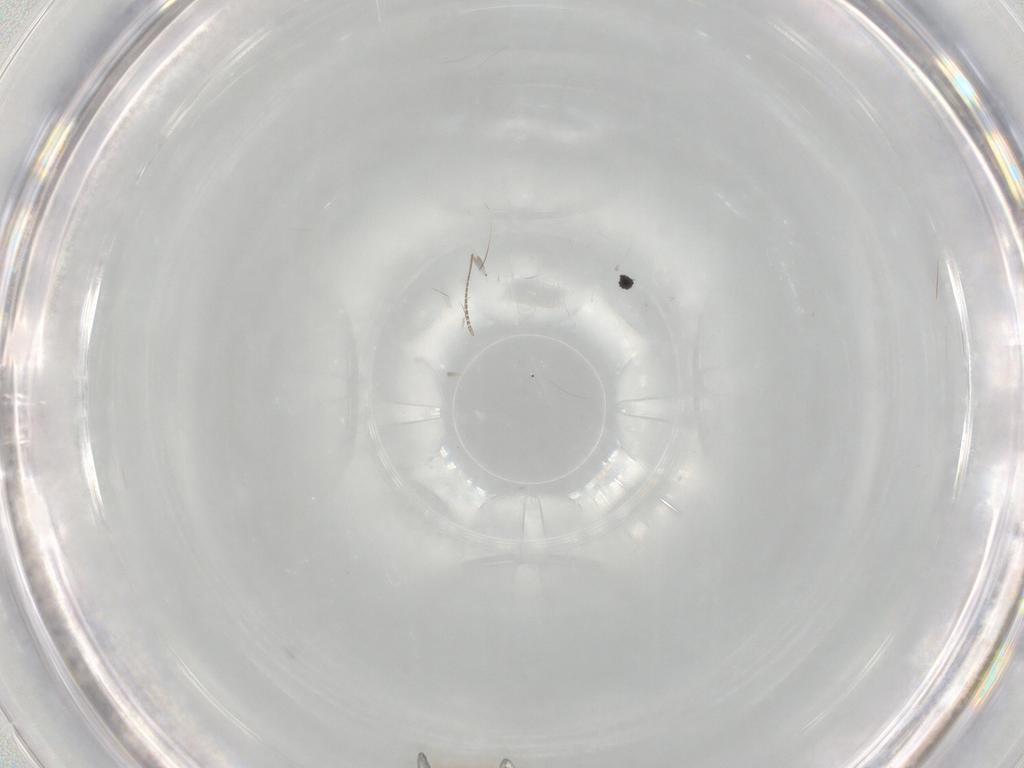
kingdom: Animalia
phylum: Arthropoda
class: Insecta
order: Diptera
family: Chironomidae
